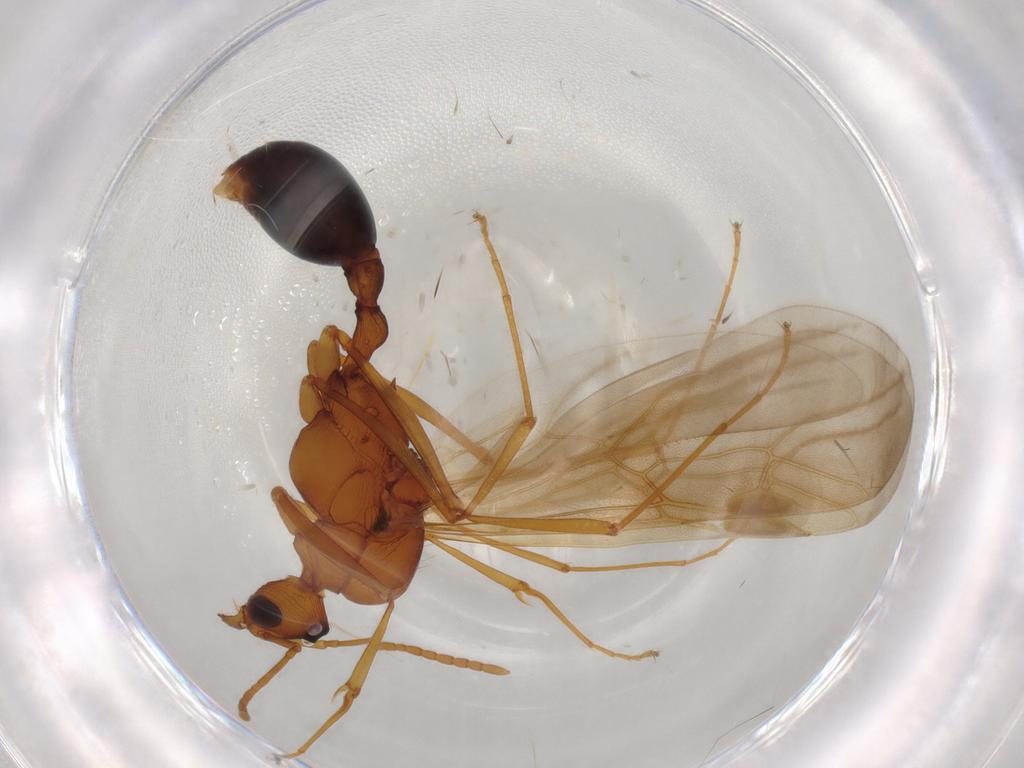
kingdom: Animalia
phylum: Arthropoda
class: Insecta
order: Hymenoptera
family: Formicidae
